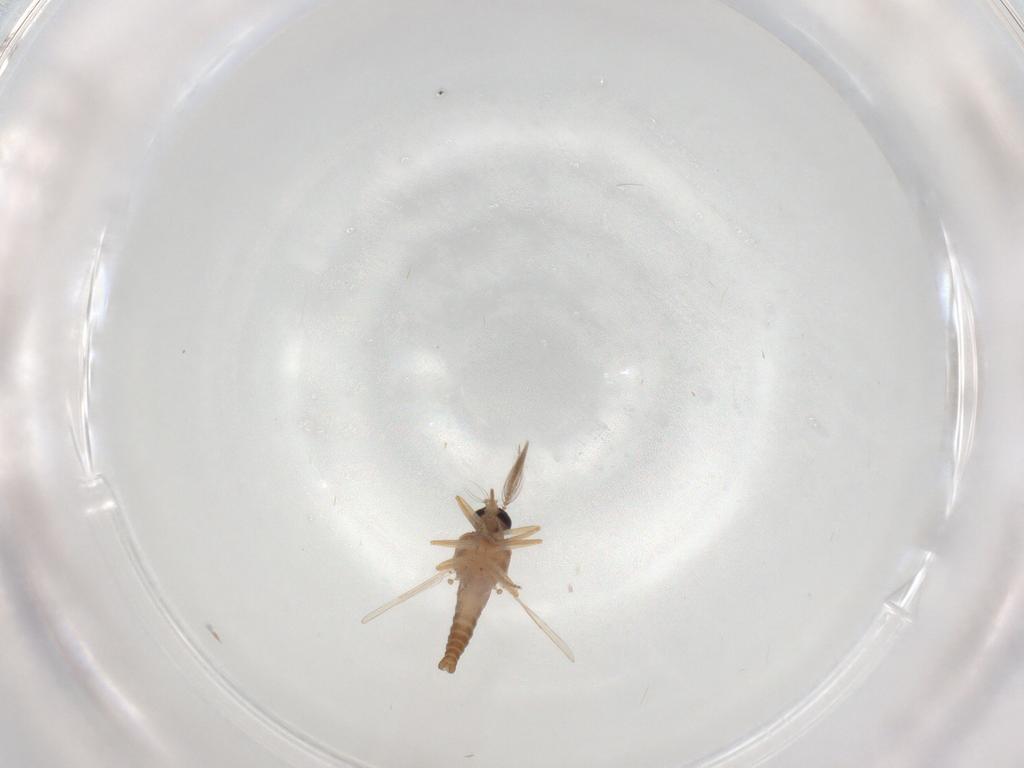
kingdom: Animalia
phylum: Arthropoda
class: Insecta
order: Diptera
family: Ceratopogonidae
